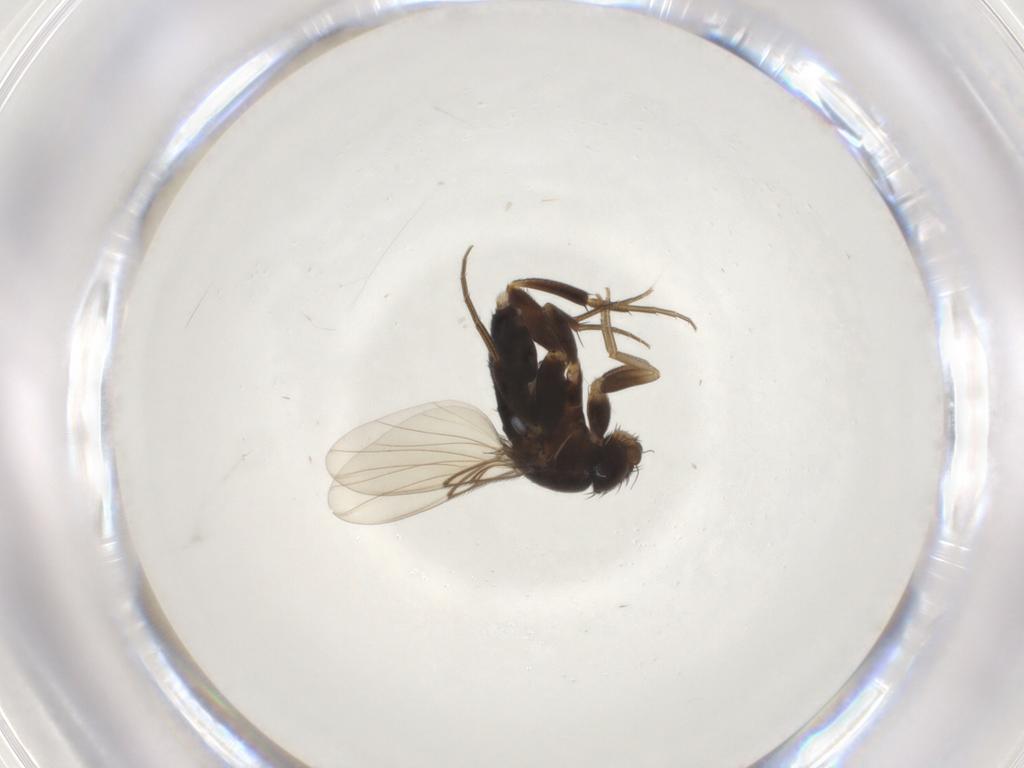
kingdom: Animalia
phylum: Arthropoda
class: Insecta
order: Diptera
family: Phoridae
